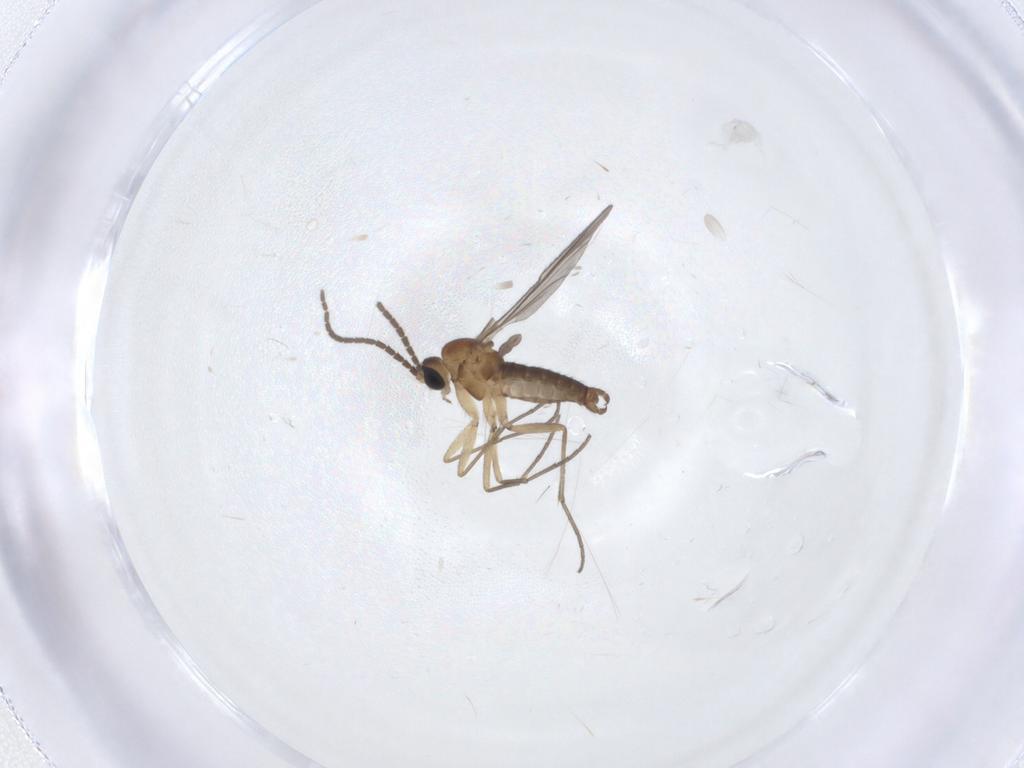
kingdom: Animalia
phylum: Arthropoda
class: Insecta
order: Diptera
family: Sciaridae
